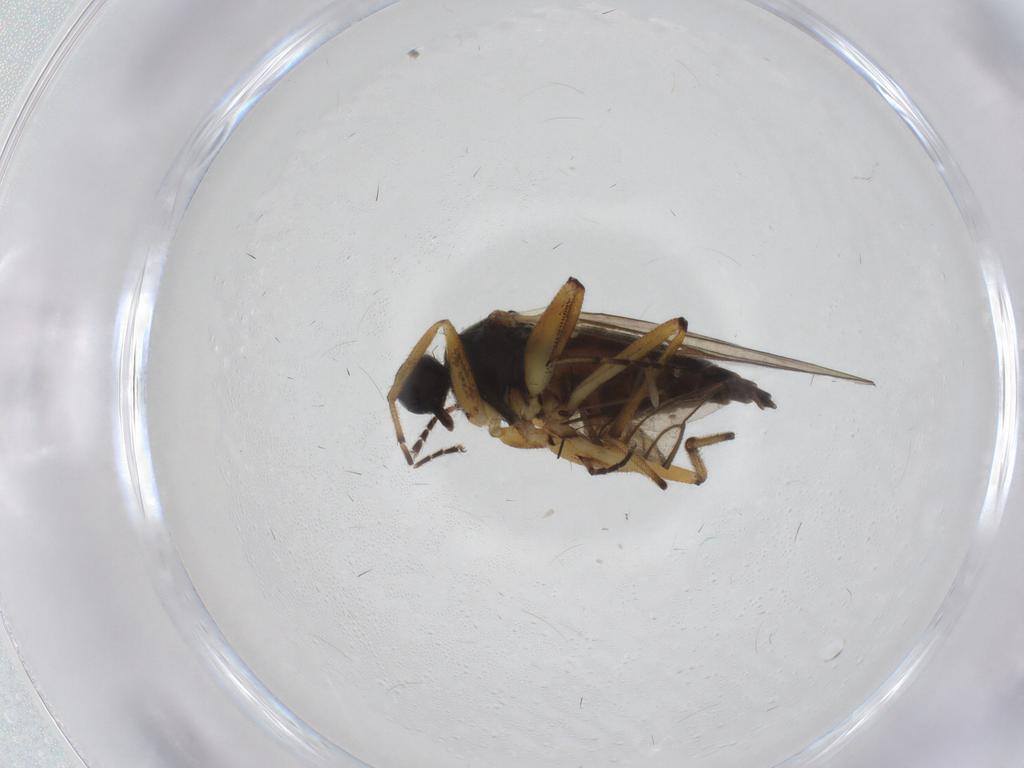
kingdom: Animalia
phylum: Arthropoda
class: Insecta
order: Diptera
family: Hybotidae
